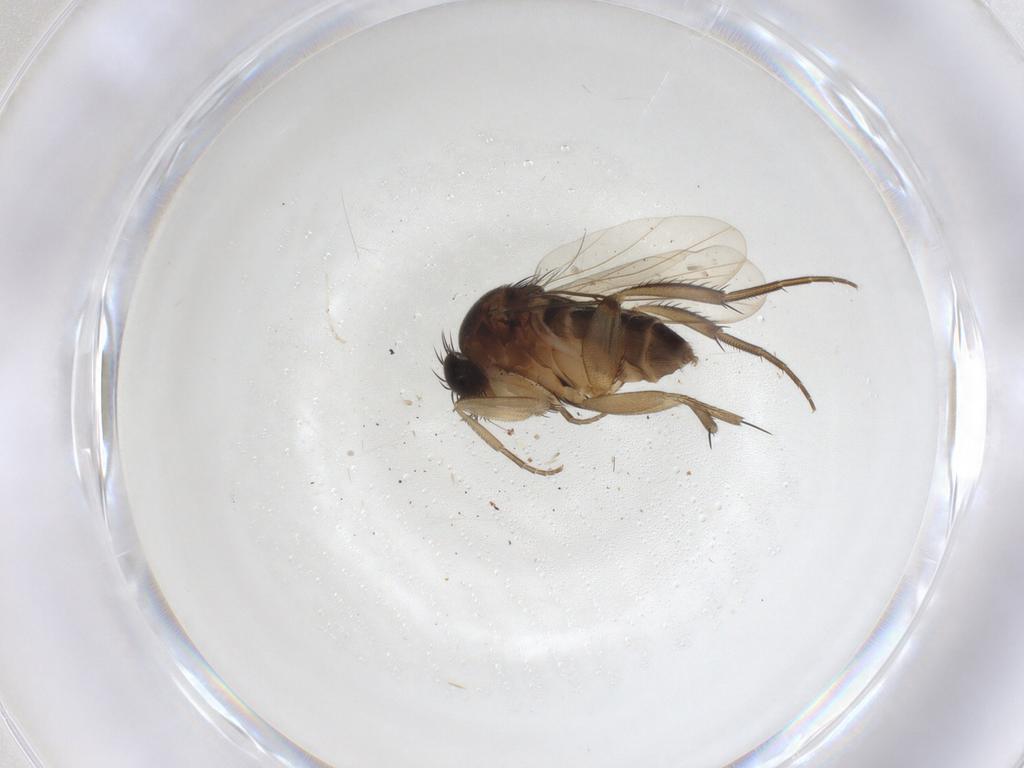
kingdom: Animalia
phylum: Arthropoda
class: Insecta
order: Diptera
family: Phoridae
